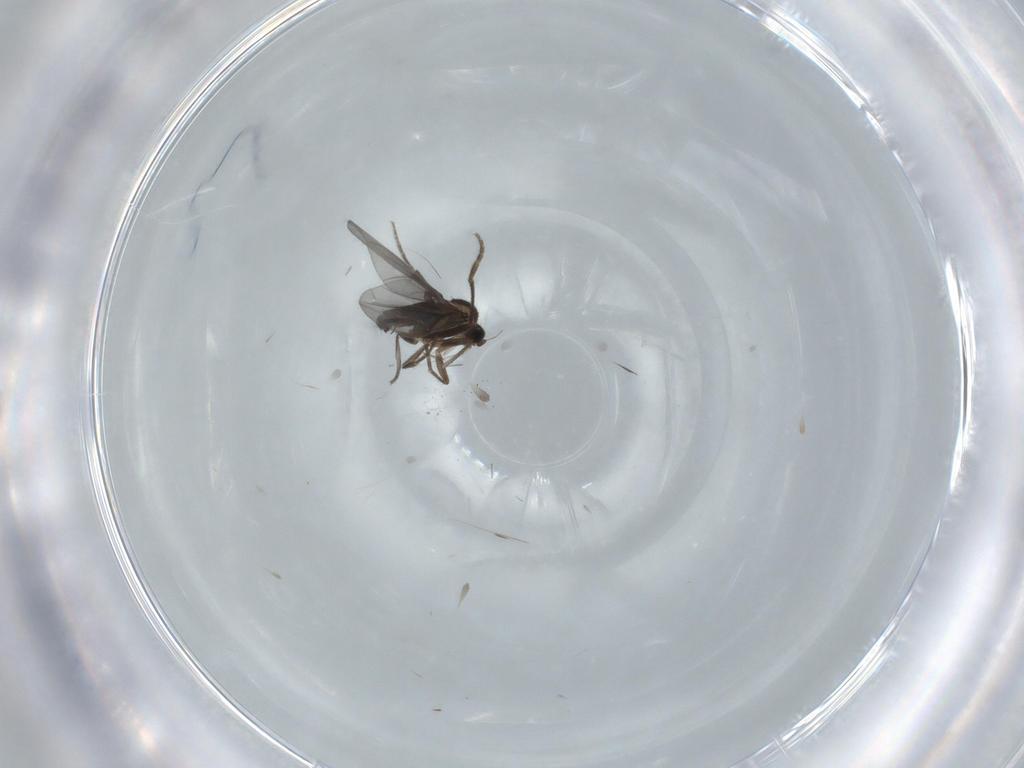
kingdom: Animalia
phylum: Arthropoda
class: Insecta
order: Diptera
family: Phoridae
